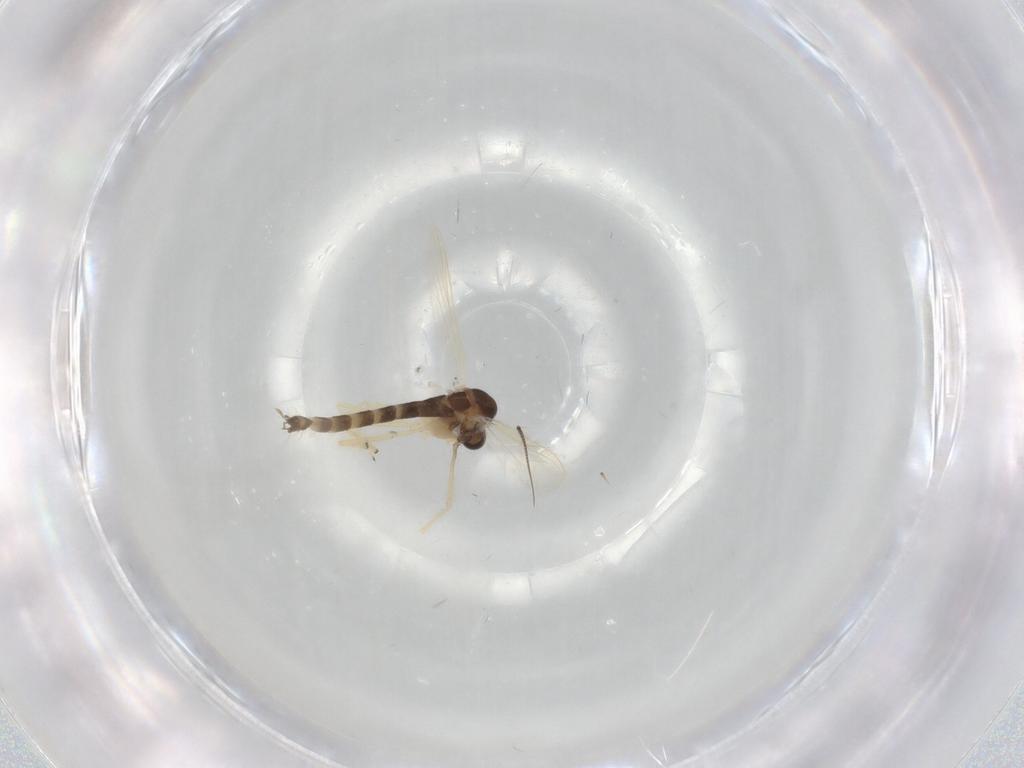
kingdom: Animalia
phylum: Arthropoda
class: Insecta
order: Diptera
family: Chironomidae
